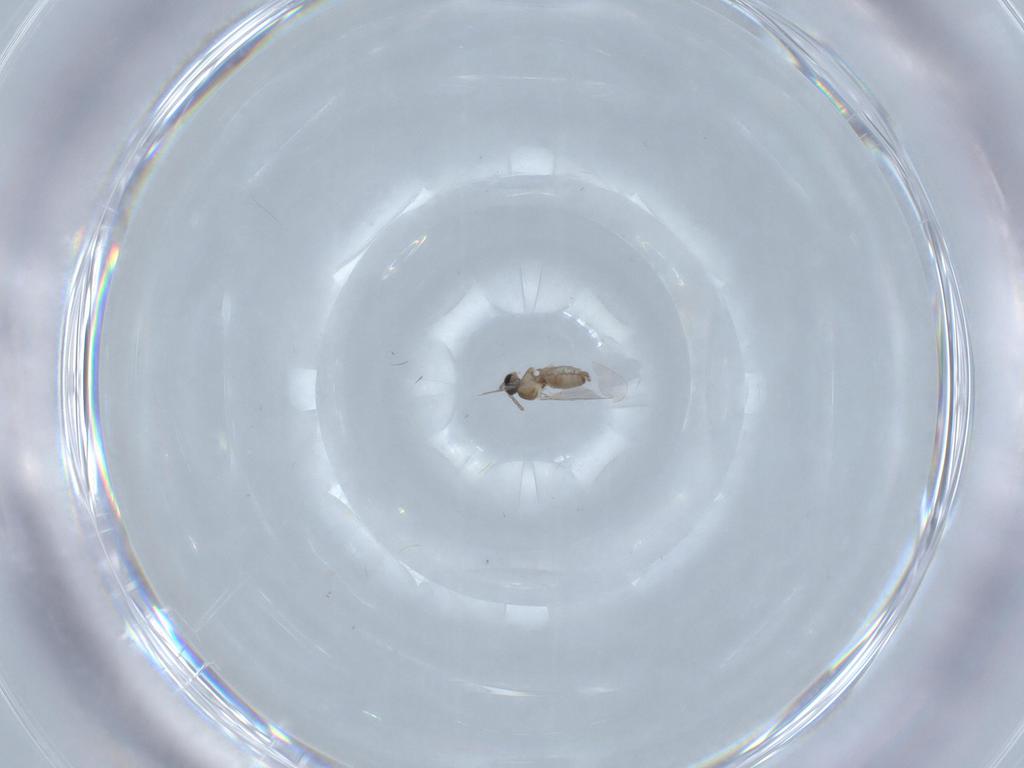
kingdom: Animalia
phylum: Arthropoda
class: Insecta
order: Diptera
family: Cecidomyiidae
